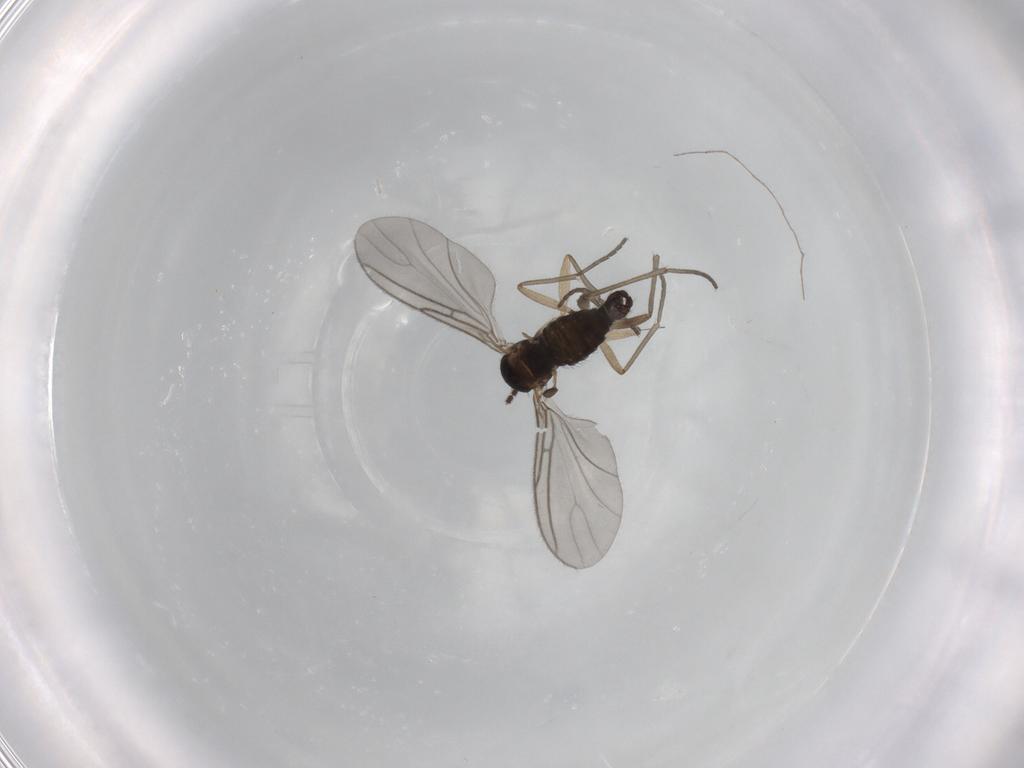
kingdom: Animalia
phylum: Arthropoda
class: Insecta
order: Diptera
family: Sciaridae
